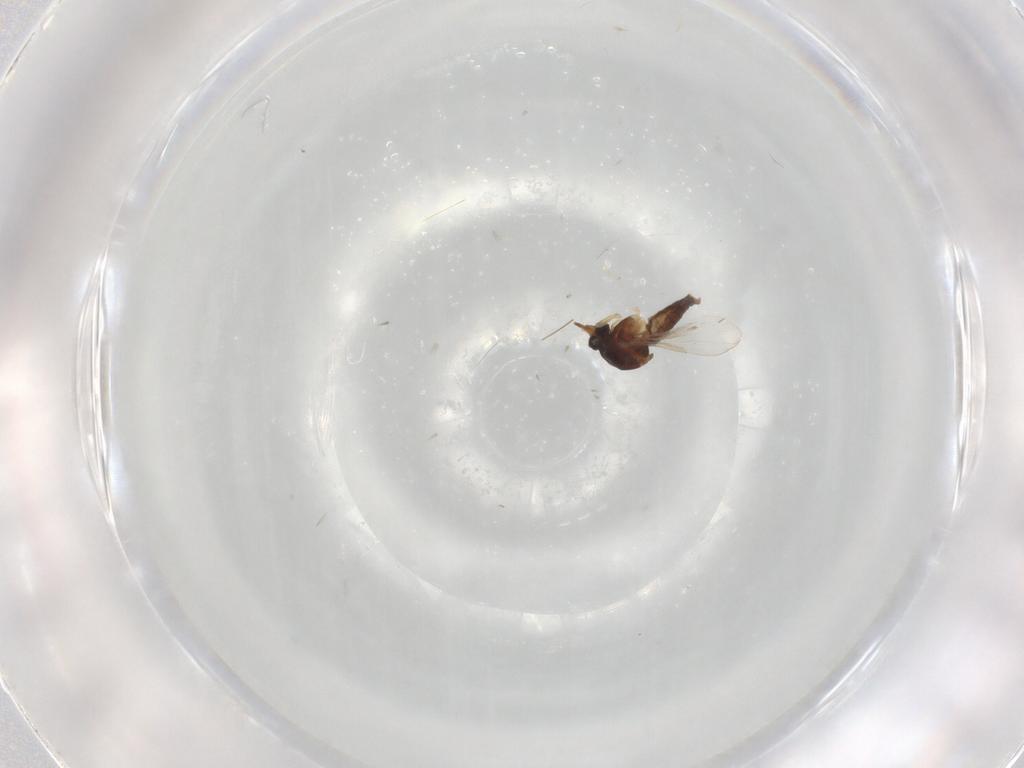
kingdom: Animalia
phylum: Arthropoda
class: Insecta
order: Diptera
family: Ceratopogonidae
